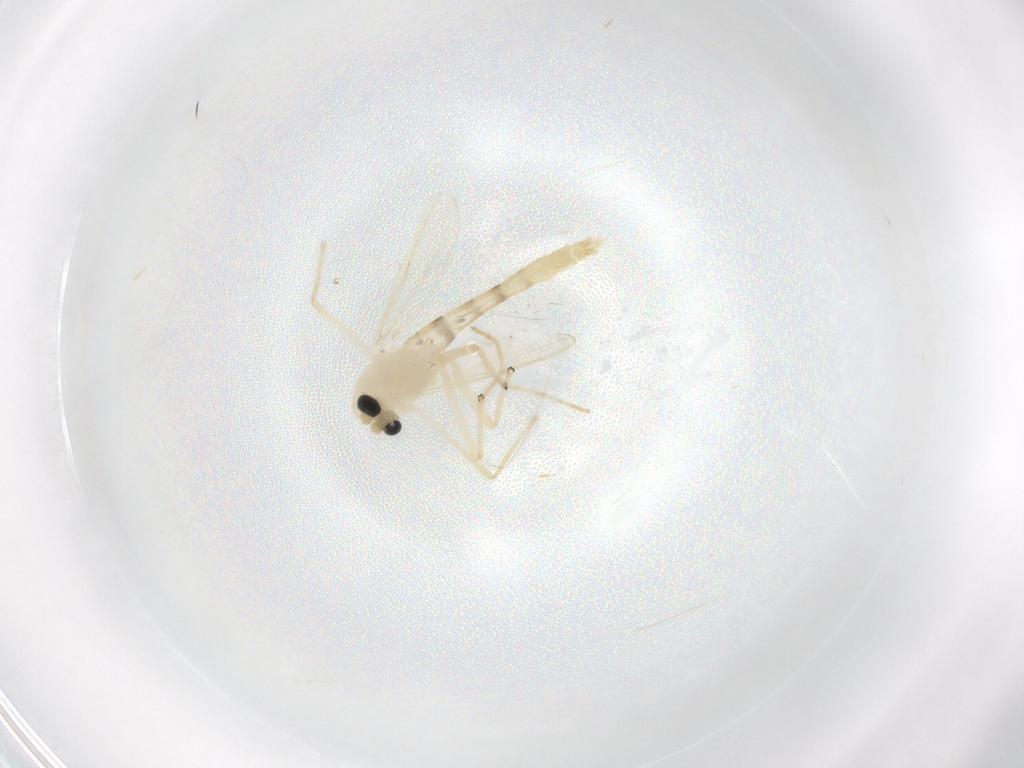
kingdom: Animalia
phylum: Arthropoda
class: Insecta
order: Diptera
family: Chironomidae
